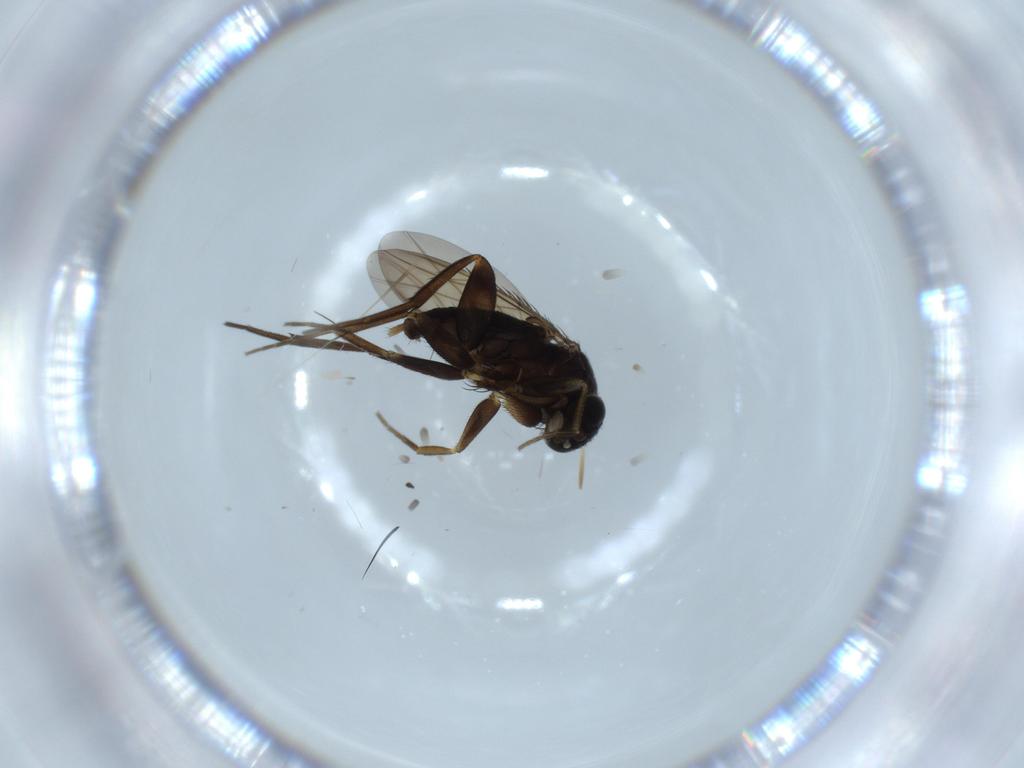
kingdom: Animalia
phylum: Arthropoda
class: Insecta
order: Diptera
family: Phoridae
